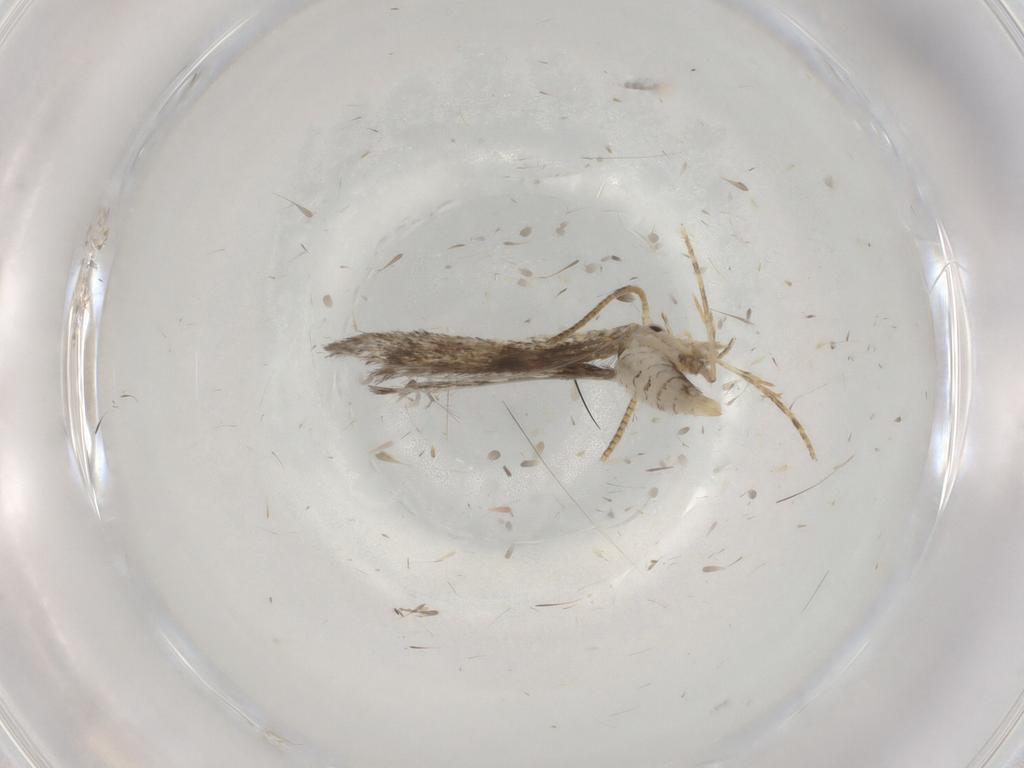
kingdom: Animalia
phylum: Arthropoda
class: Insecta
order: Lepidoptera
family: Tineidae
